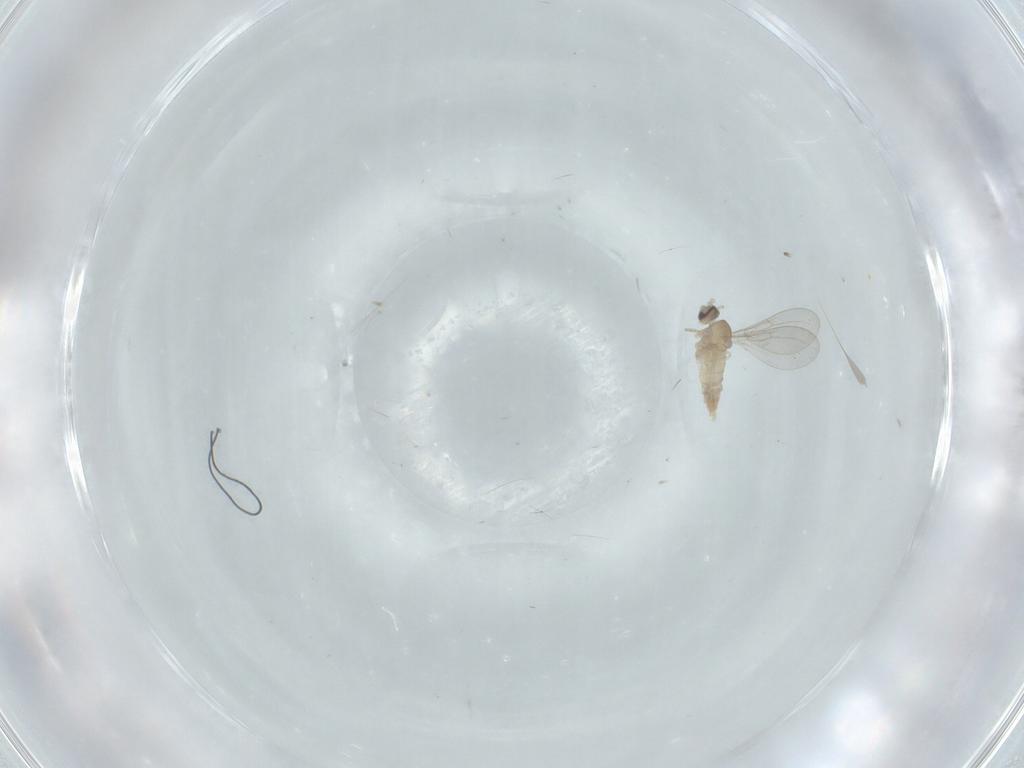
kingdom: Animalia
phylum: Arthropoda
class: Insecta
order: Diptera
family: Cecidomyiidae
